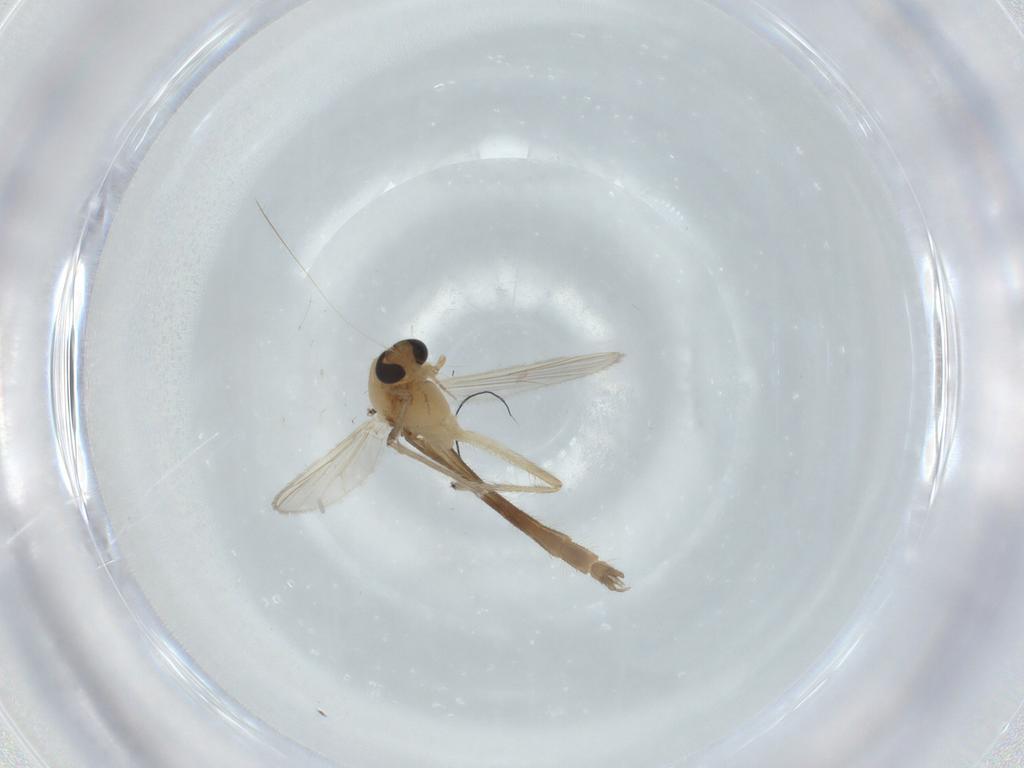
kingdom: Animalia
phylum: Arthropoda
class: Insecta
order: Diptera
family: Chironomidae
